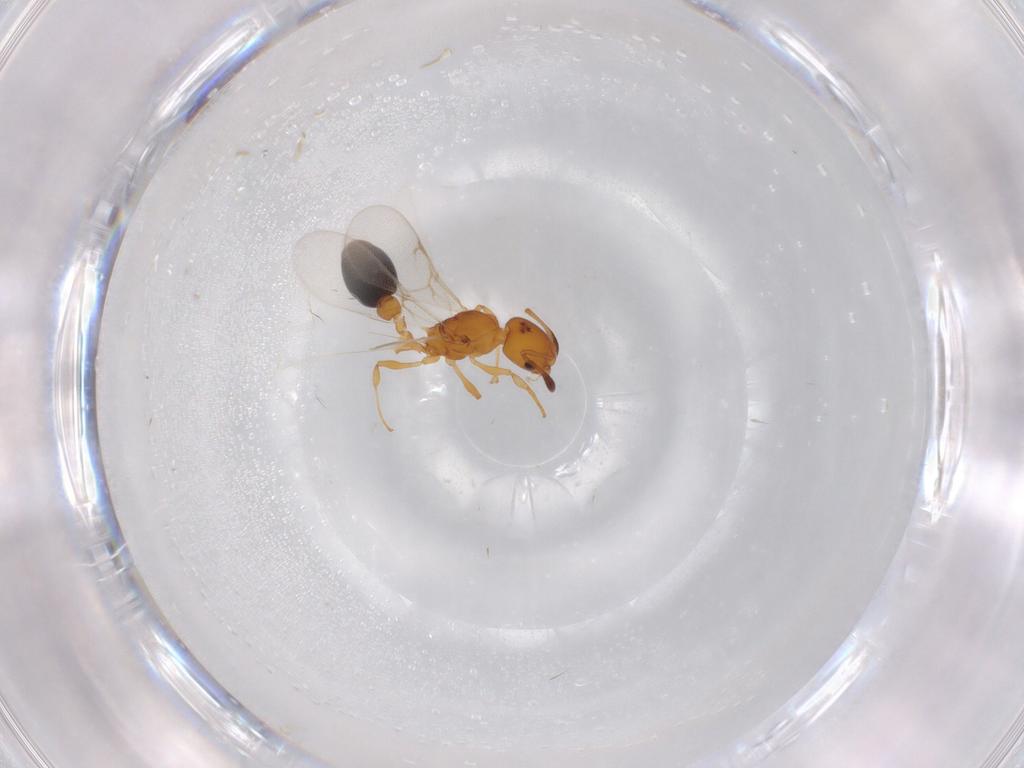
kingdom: Animalia
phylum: Arthropoda
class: Insecta
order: Hymenoptera
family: Formicidae
